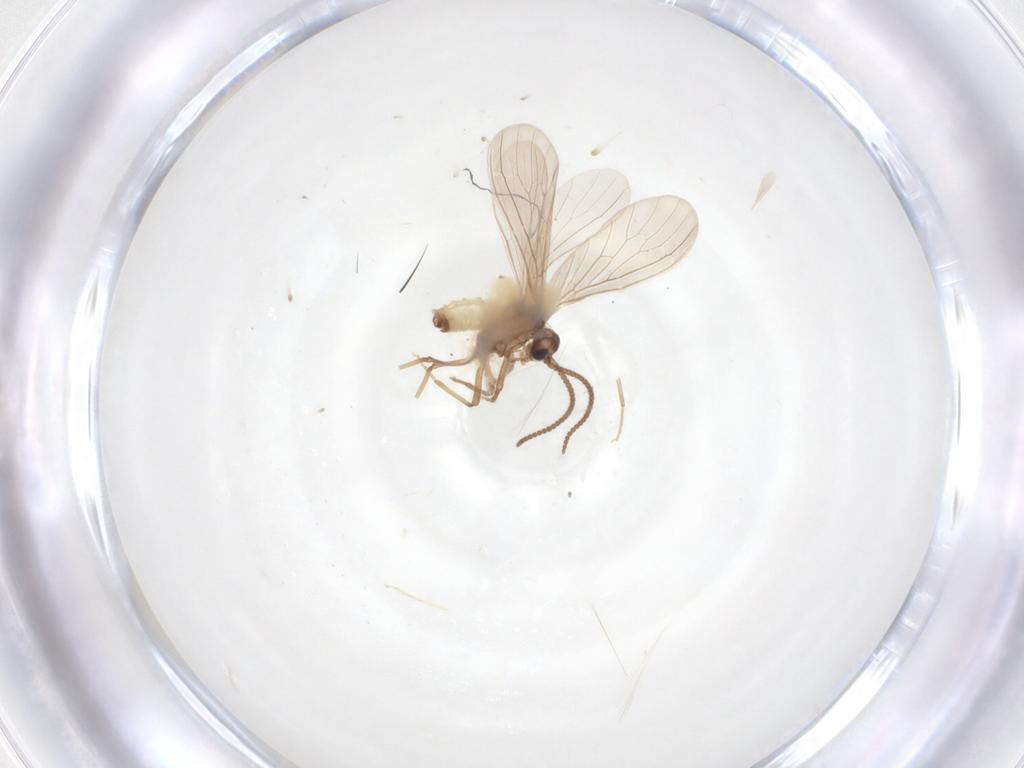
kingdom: Animalia
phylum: Arthropoda
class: Insecta
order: Neuroptera
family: Coniopterygidae
